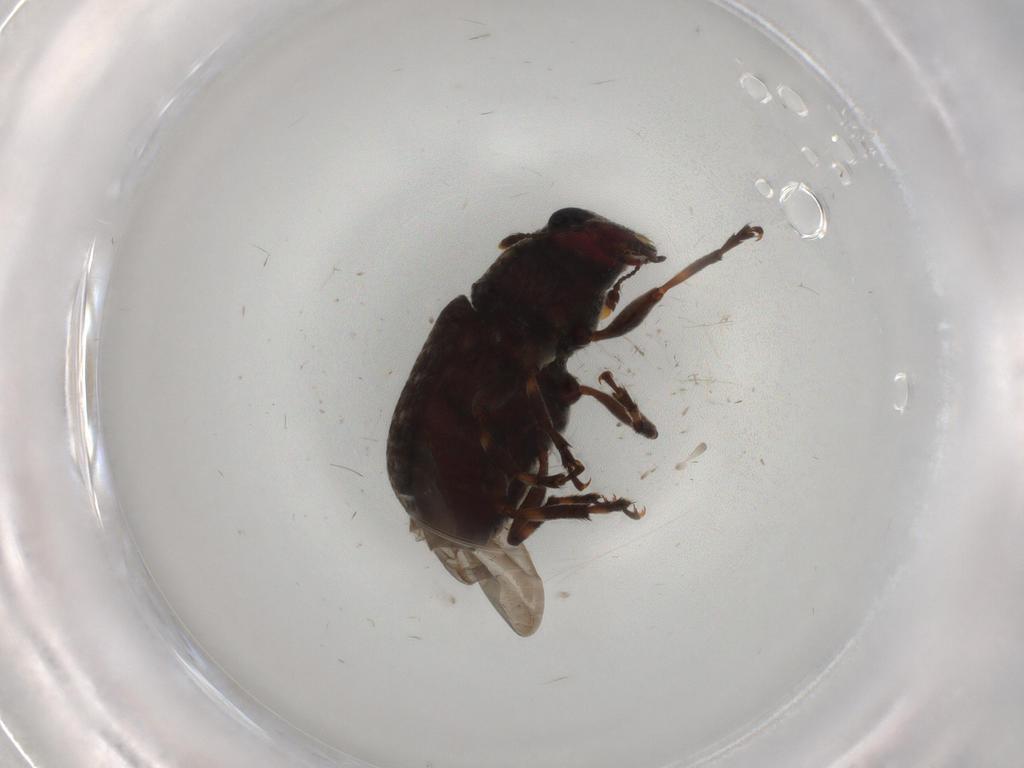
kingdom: Animalia
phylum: Arthropoda
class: Insecta
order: Coleoptera
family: Anthribidae
